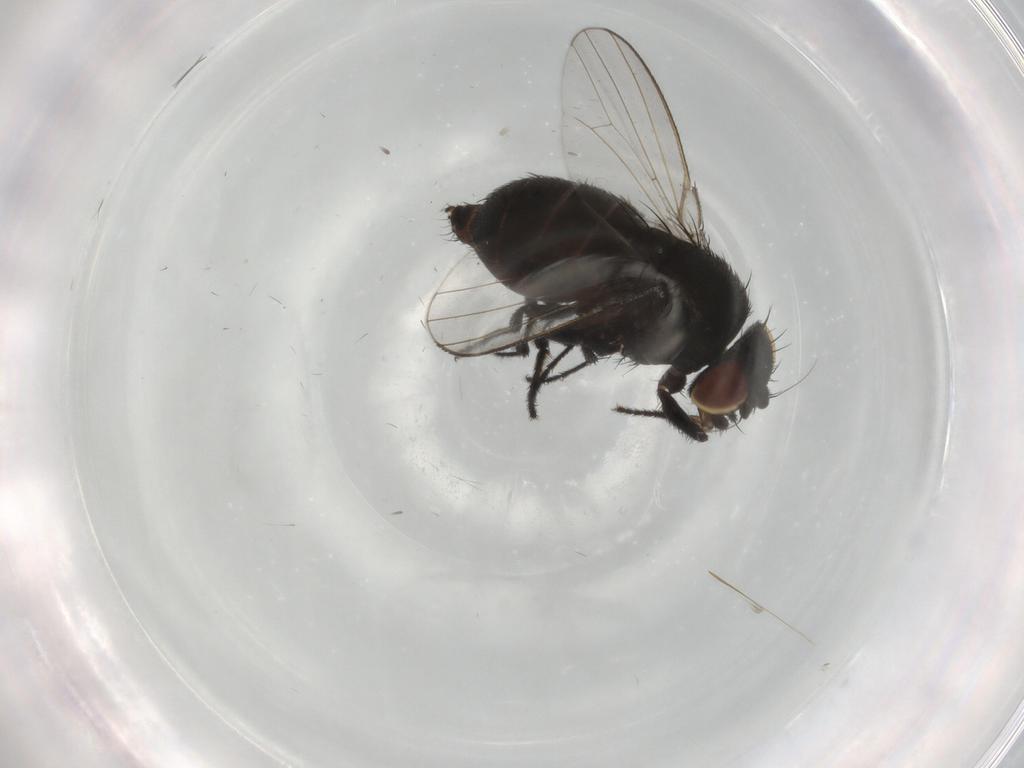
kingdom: Animalia
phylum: Arthropoda
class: Insecta
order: Diptera
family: Milichiidae
